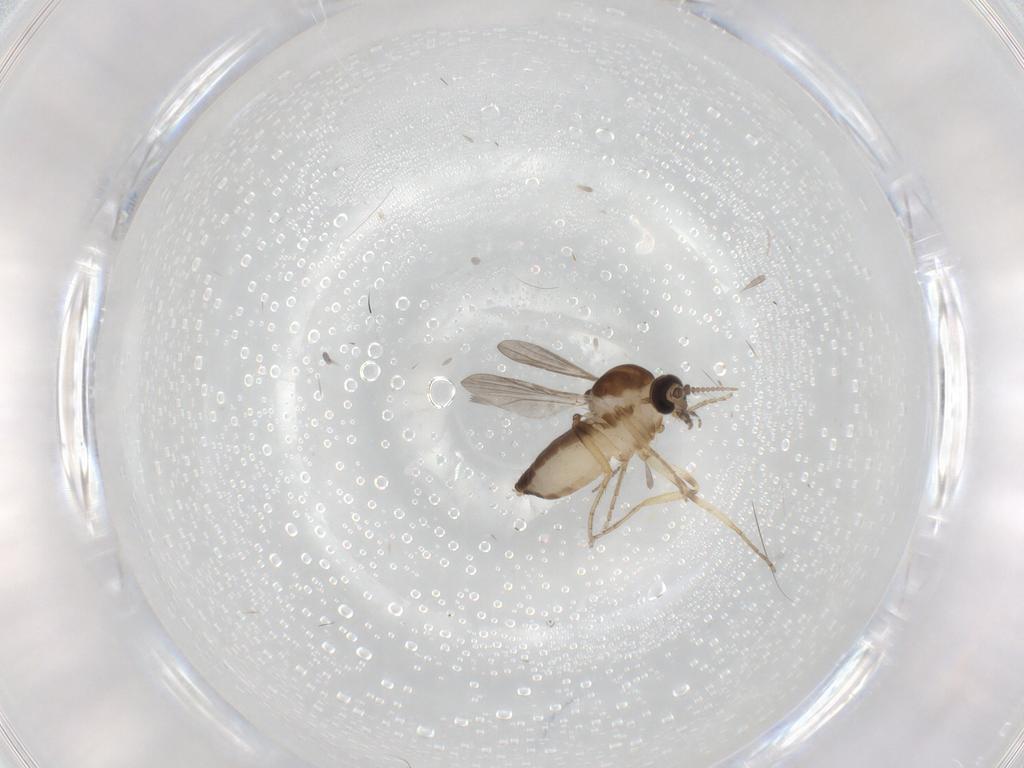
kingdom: Animalia
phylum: Arthropoda
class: Insecta
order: Diptera
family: Ceratopogonidae
